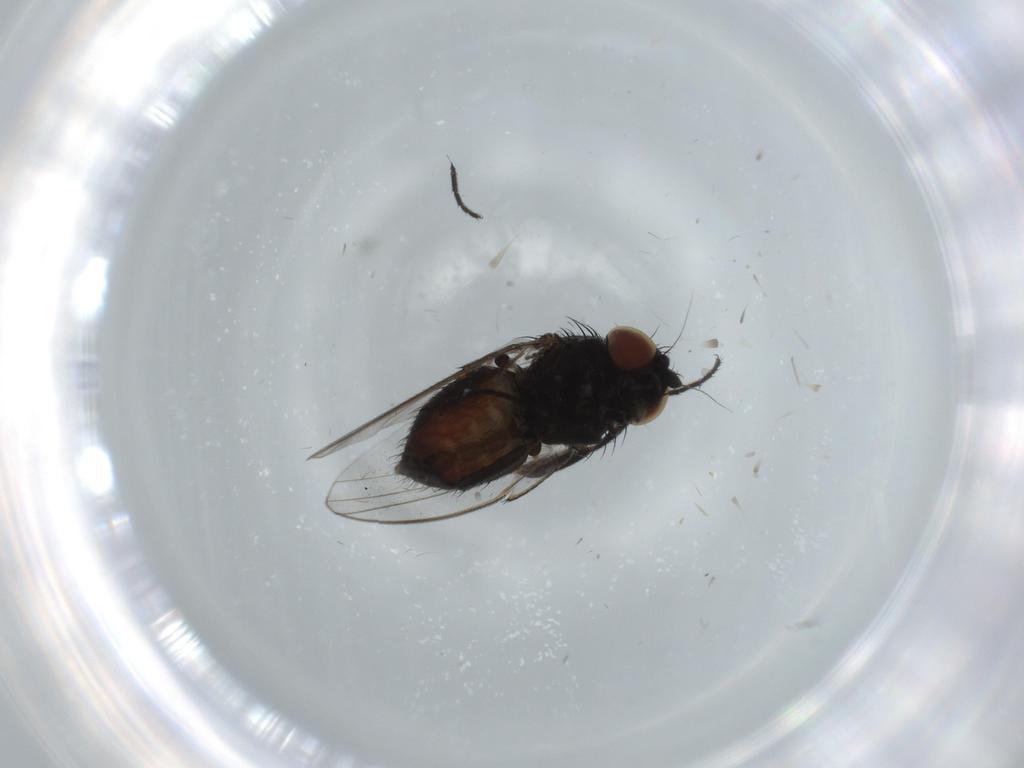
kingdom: Animalia
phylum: Arthropoda
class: Insecta
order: Diptera
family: Milichiidae
